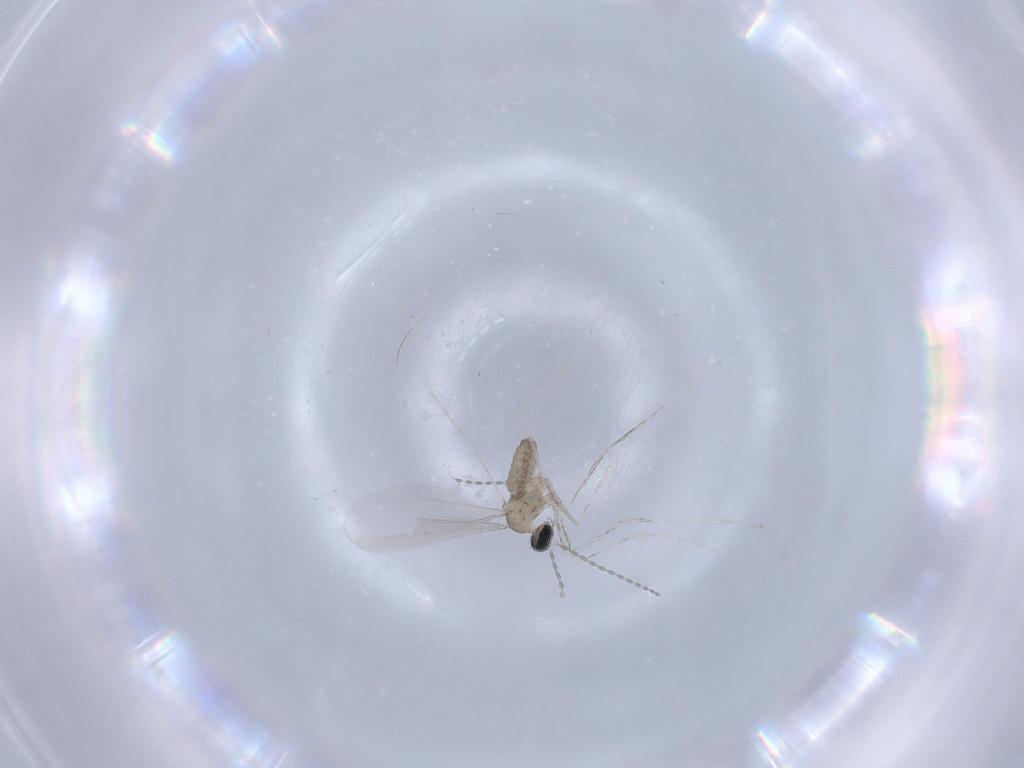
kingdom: Animalia
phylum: Arthropoda
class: Insecta
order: Diptera
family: Cecidomyiidae
